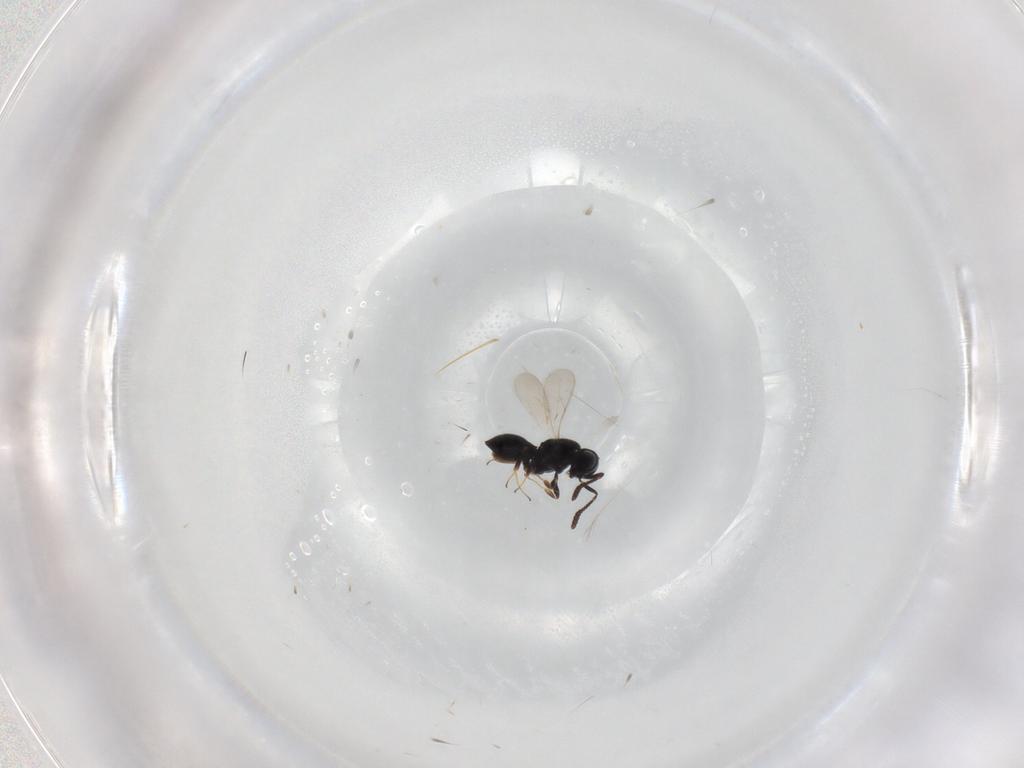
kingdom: Animalia
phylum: Arthropoda
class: Insecta
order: Hymenoptera
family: Scelionidae
